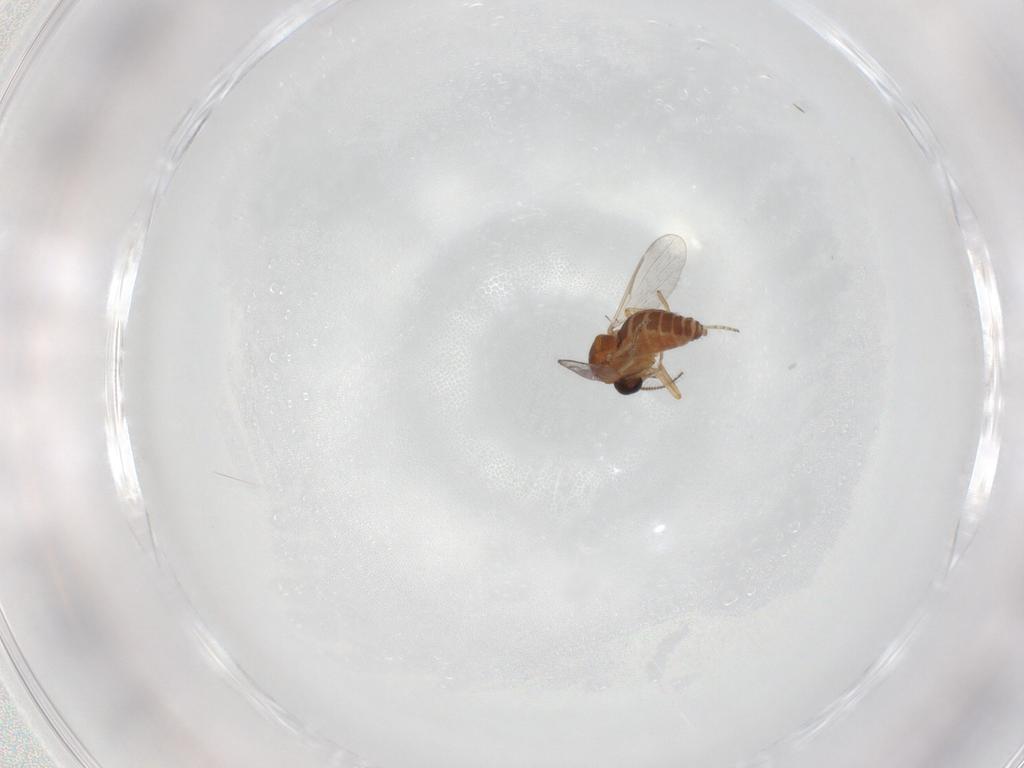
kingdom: Animalia
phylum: Arthropoda
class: Insecta
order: Diptera
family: Ceratopogonidae
